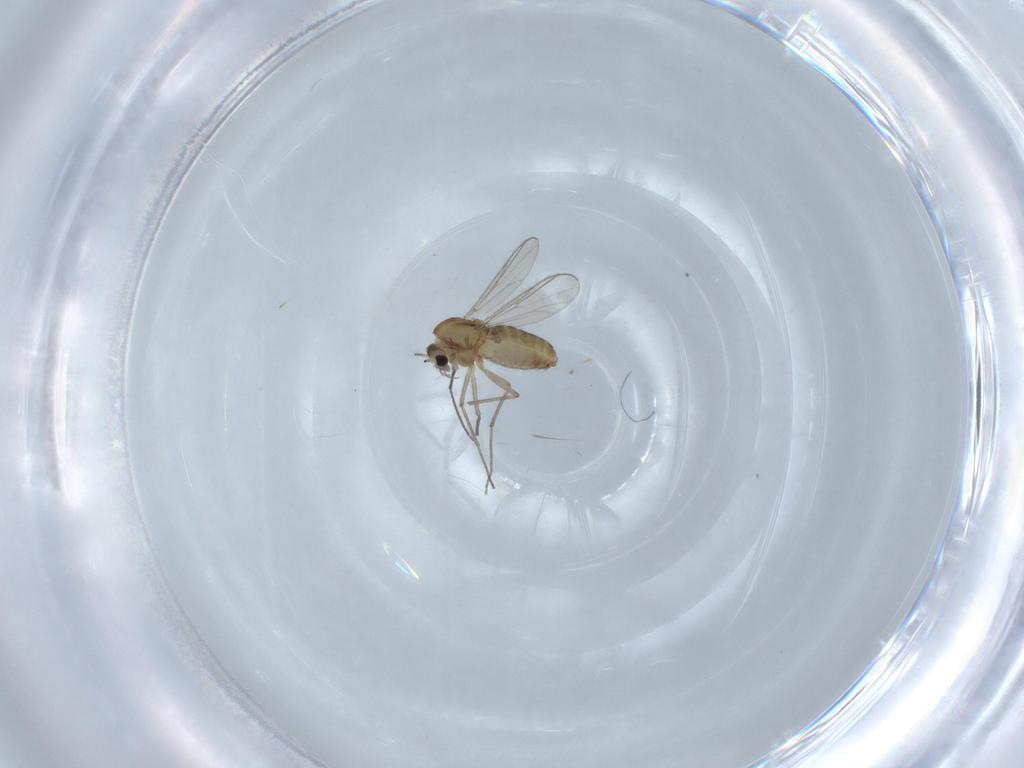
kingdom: Animalia
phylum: Arthropoda
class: Insecta
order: Diptera
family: Chironomidae
